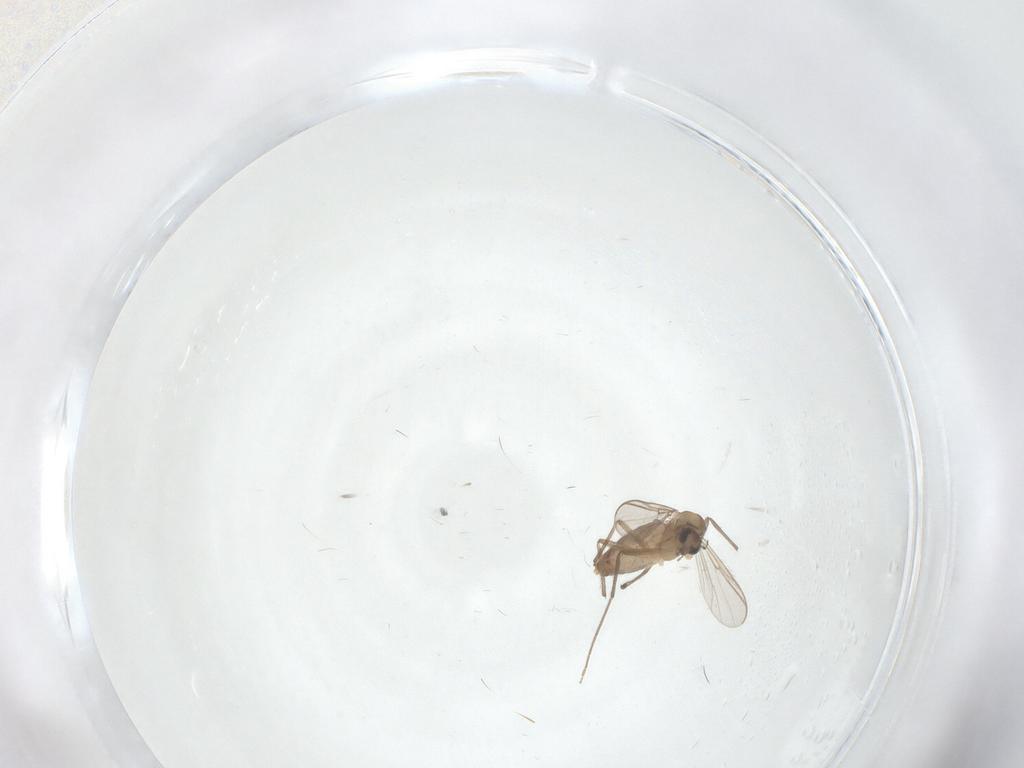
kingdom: Animalia
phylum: Arthropoda
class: Insecta
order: Diptera
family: Chironomidae
